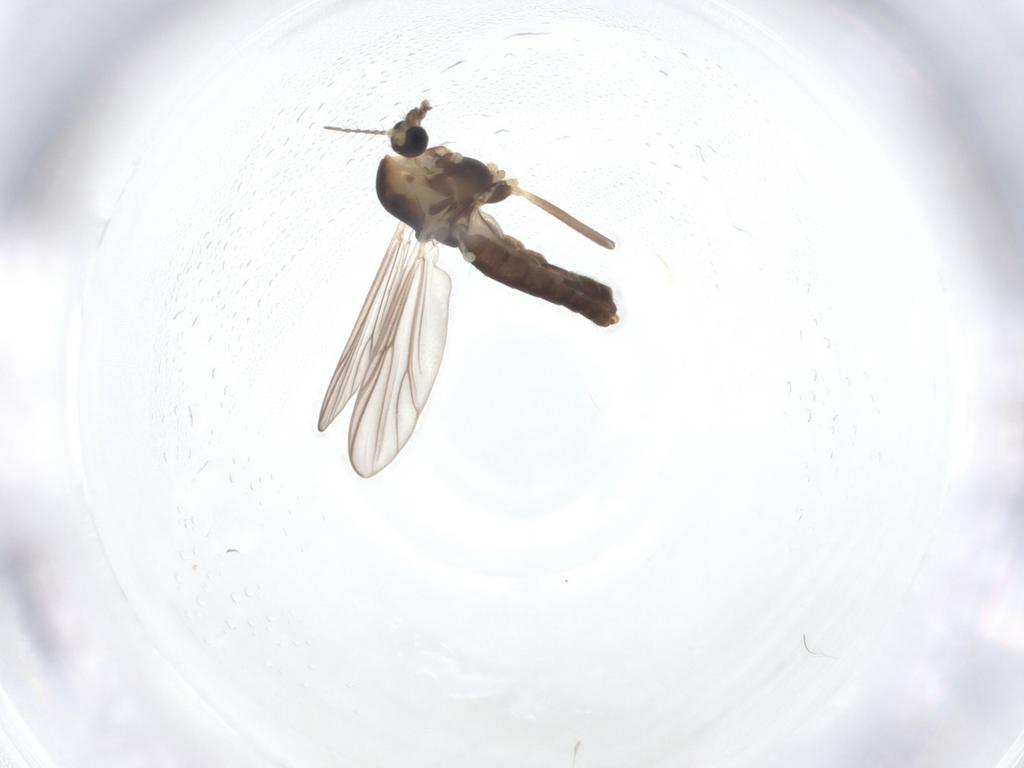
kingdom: Animalia
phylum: Arthropoda
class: Insecta
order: Diptera
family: Chironomidae
